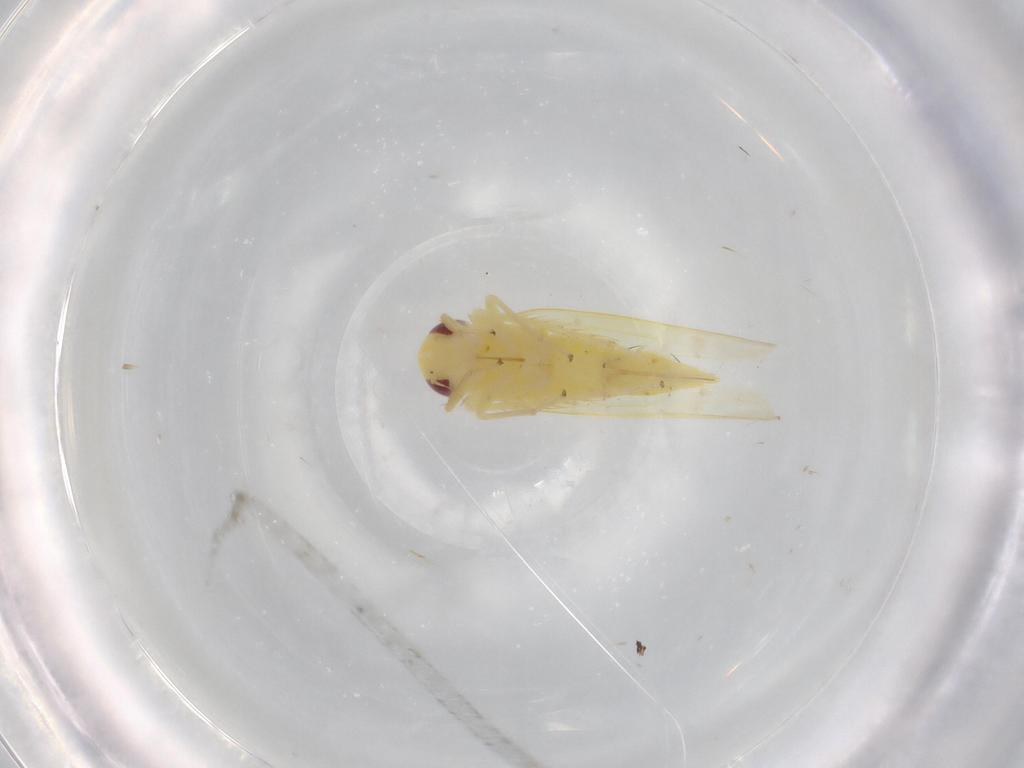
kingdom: Animalia
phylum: Arthropoda
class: Insecta
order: Hemiptera
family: Cicadellidae
